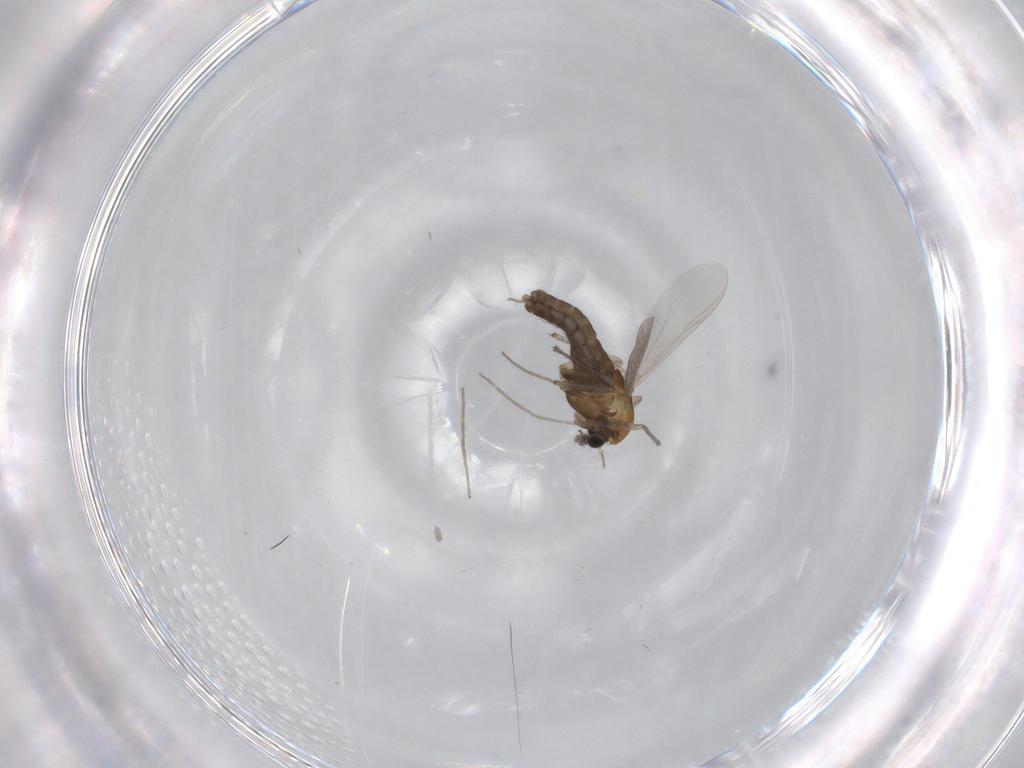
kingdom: Animalia
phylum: Arthropoda
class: Insecta
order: Diptera
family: Chironomidae
